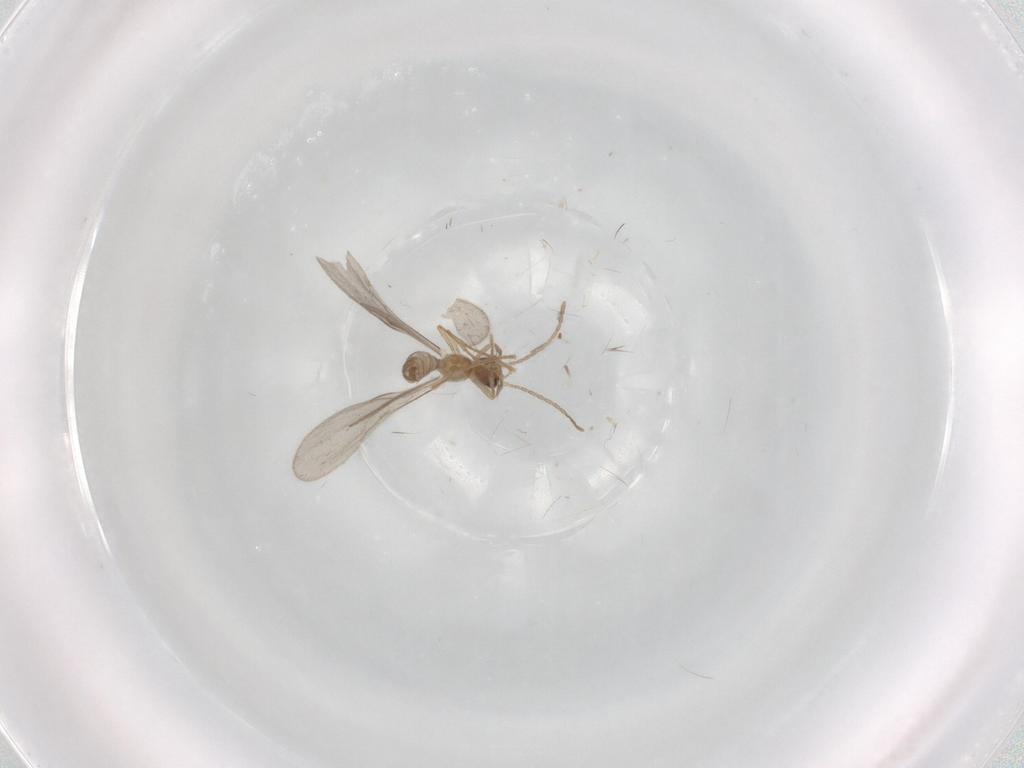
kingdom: Animalia
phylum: Arthropoda
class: Insecta
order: Hymenoptera
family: Formicidae
